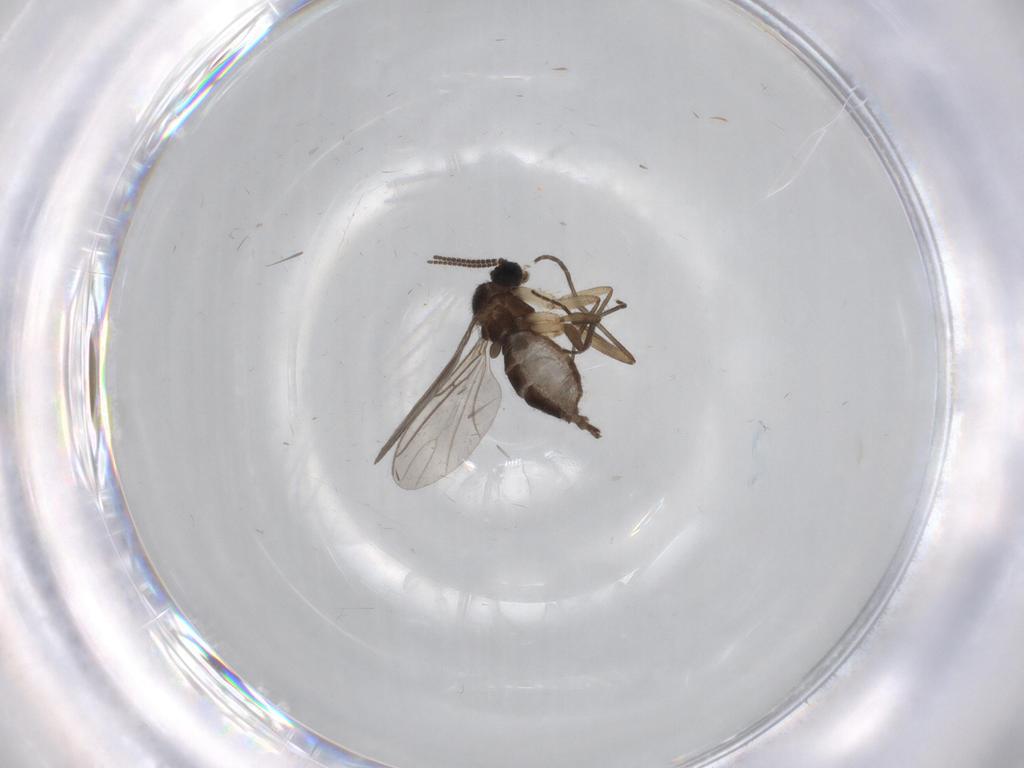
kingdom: Animalia
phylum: Arthropoda
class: Insecta
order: Diptera
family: Sciaridae
